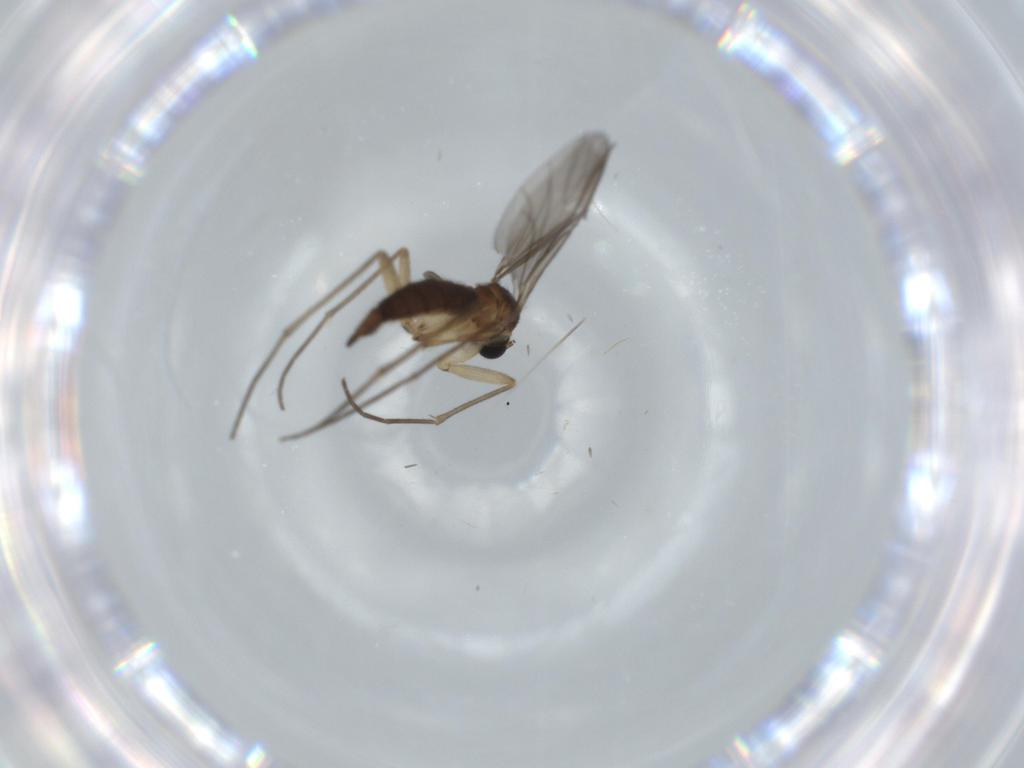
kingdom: Animalia
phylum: Arthropoda
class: Insecta
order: Diptera
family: Sciaridae
